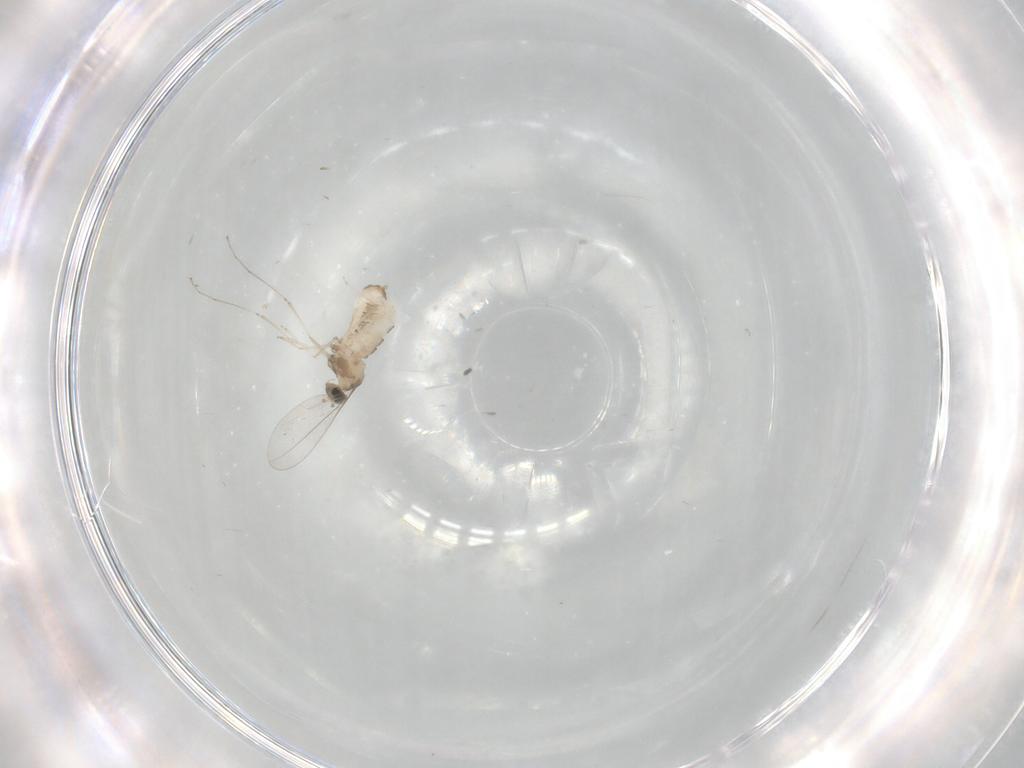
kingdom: Animalia
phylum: Arthropoda
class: Insecta
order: Diptera
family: Cecidomyiidae
